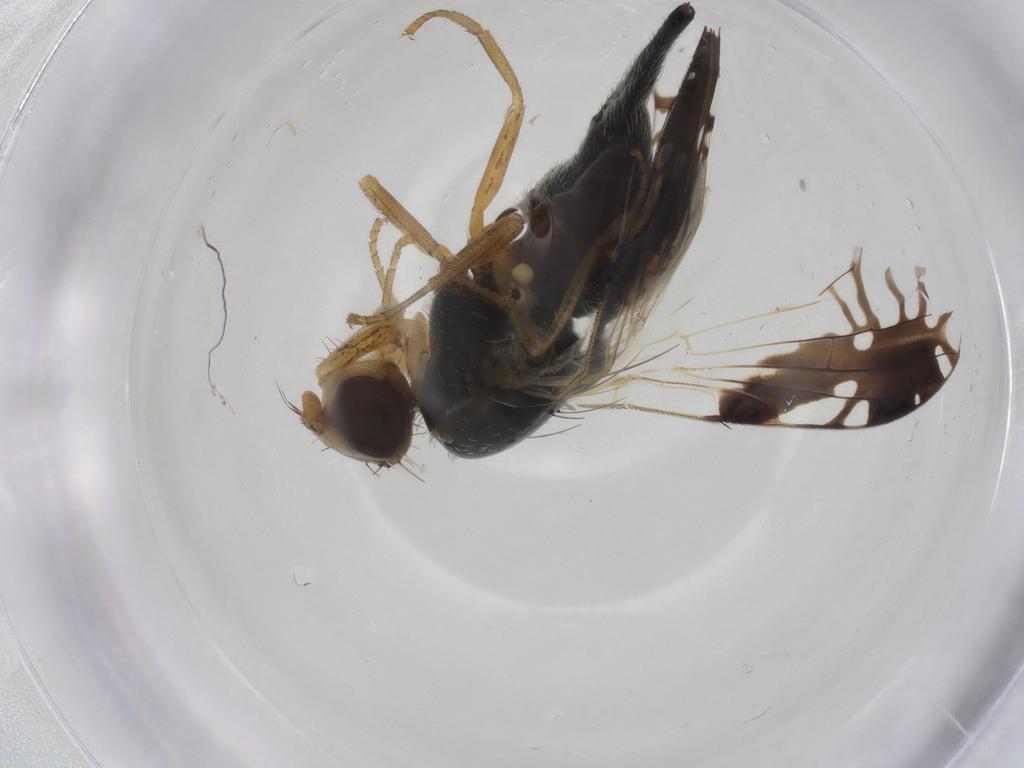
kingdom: Animalia
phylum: Arthropoda
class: Insecta
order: Diptera
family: Tephritidae
